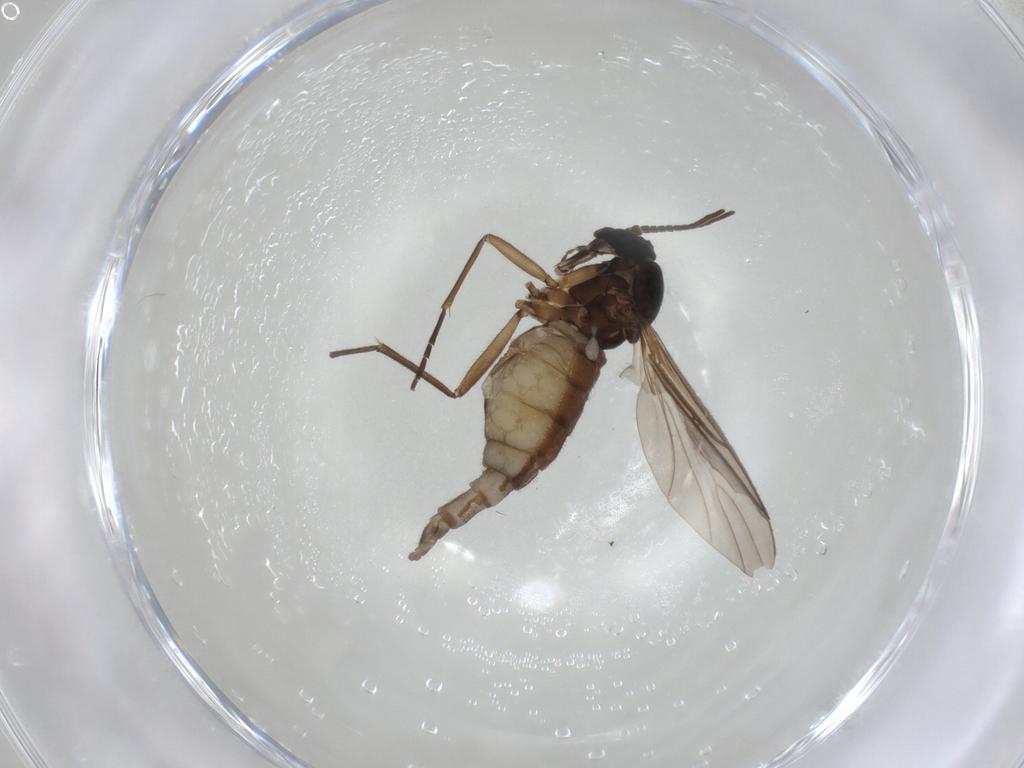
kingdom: Animalia
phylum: Arthropoda
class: Insecta
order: Diptera
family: Sciaridae
